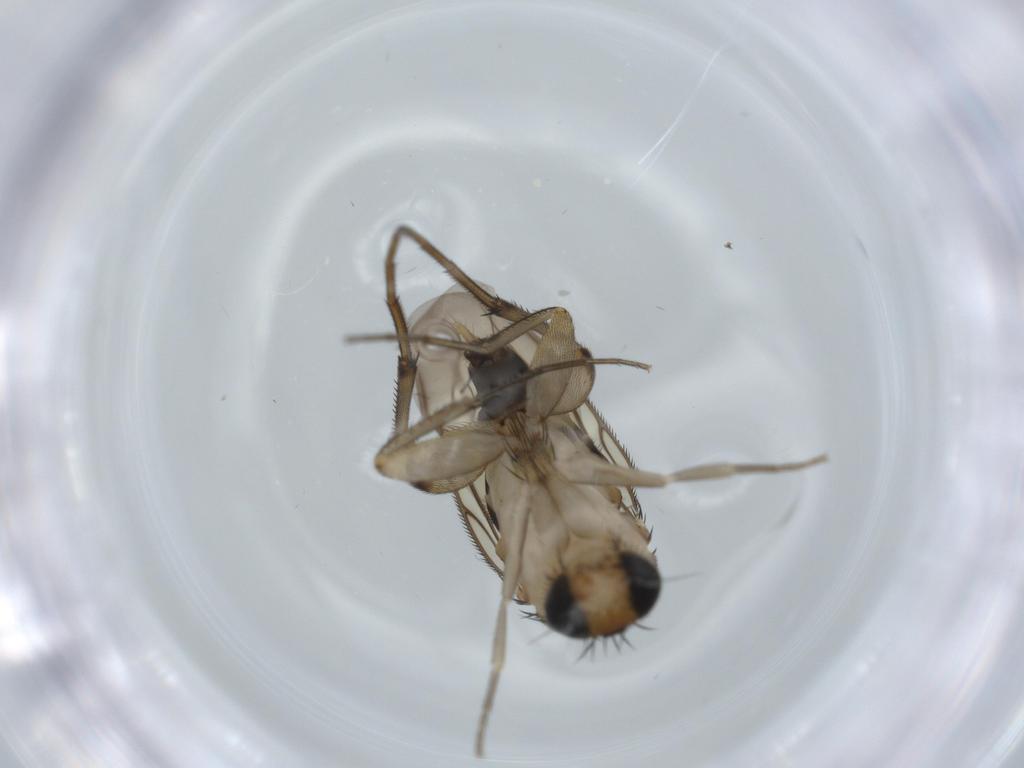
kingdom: Animalia
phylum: Arthropoda
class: Insecta
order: Diptera
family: Phoridae
